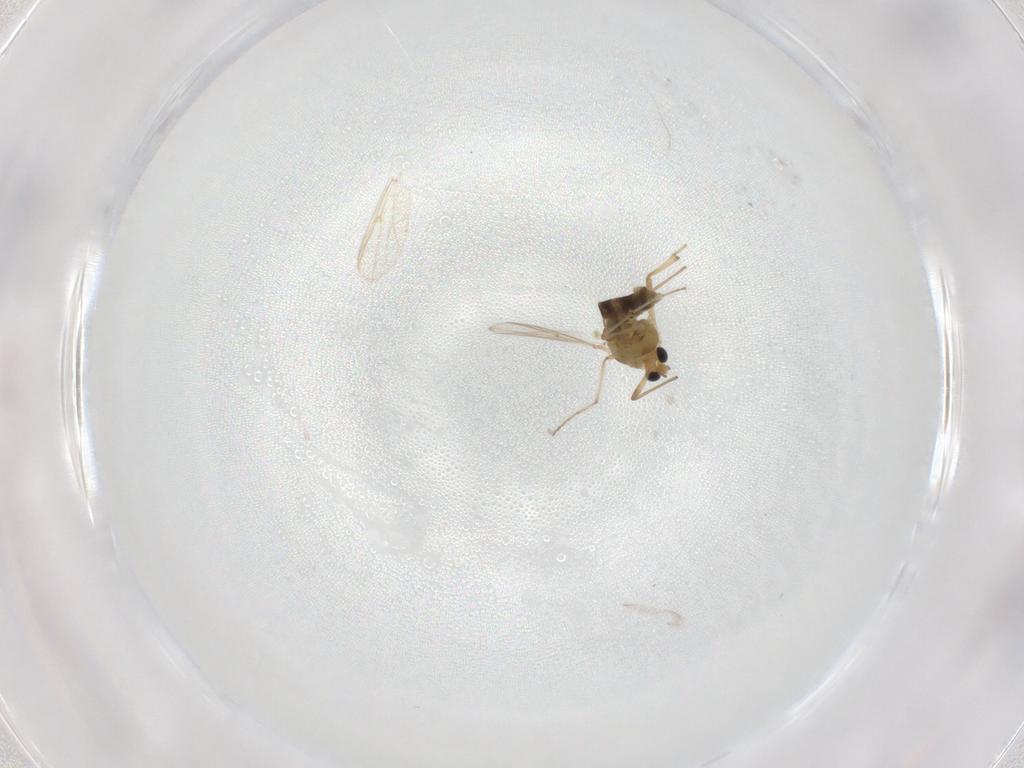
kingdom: Animalia
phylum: Arthropoda
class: Insecta
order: Diptera
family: Chironomidae
